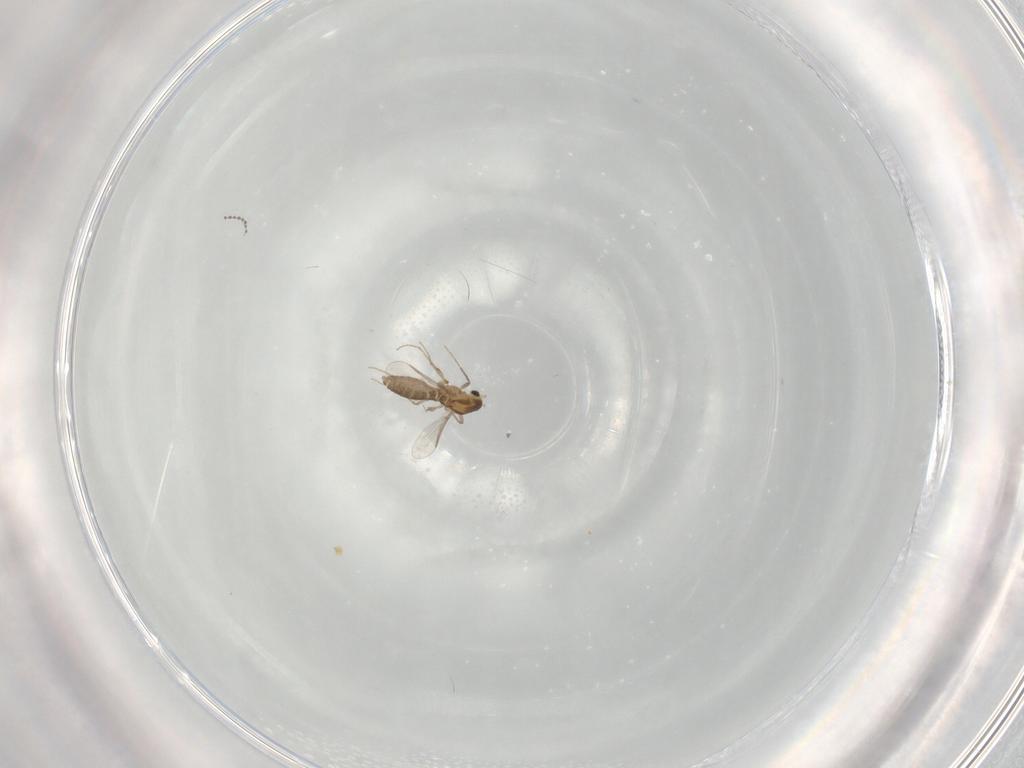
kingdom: Animalia
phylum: Arthropoda
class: Insecta
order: Diptera
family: Chironomidae
